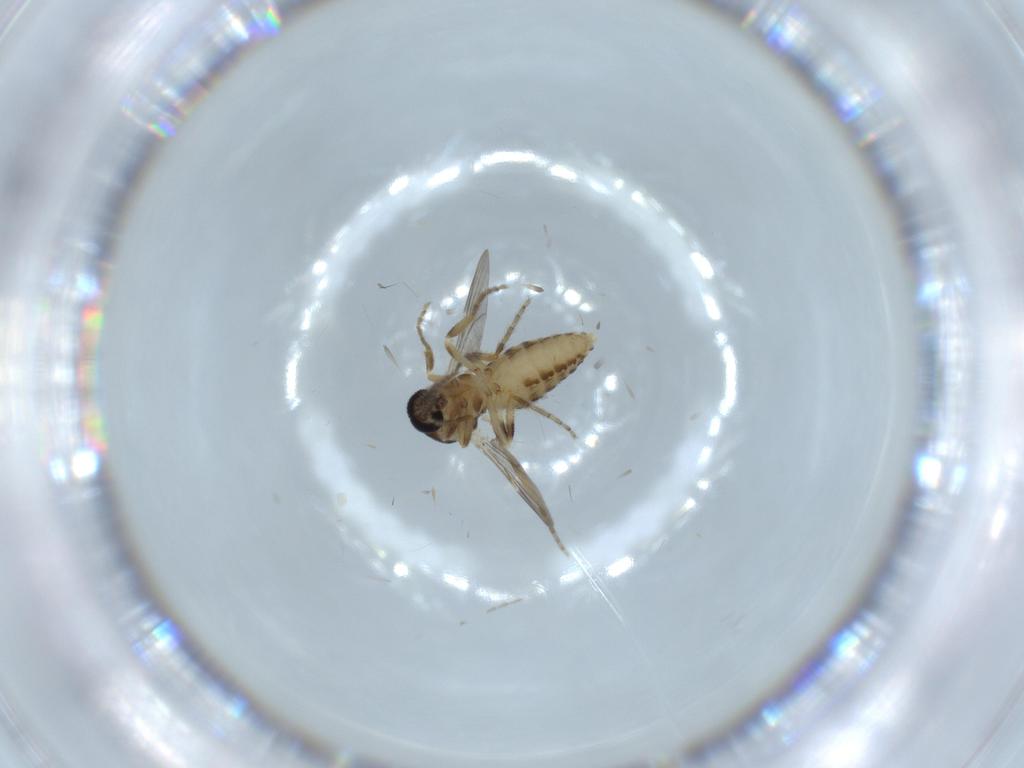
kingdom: Animalia
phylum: Arthropoda
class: Insecta
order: Diptera
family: Ceratopogonidae
